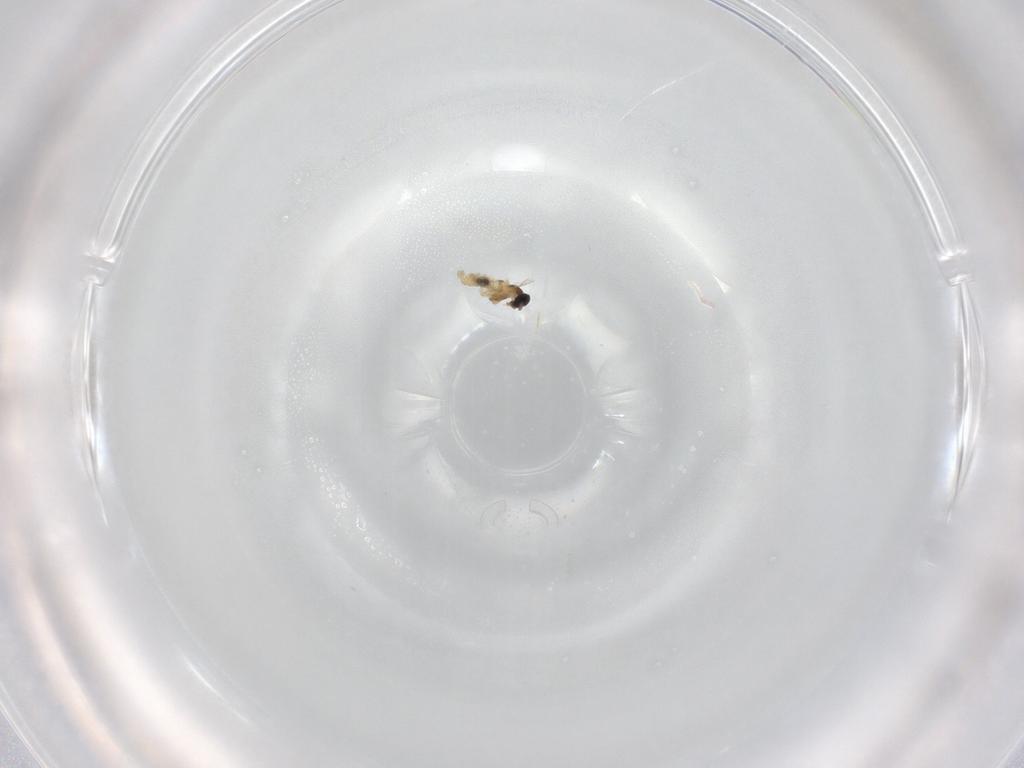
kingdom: Animalia
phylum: Arthropoda
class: Insecta
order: Diptera
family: Cecidomyiidae
